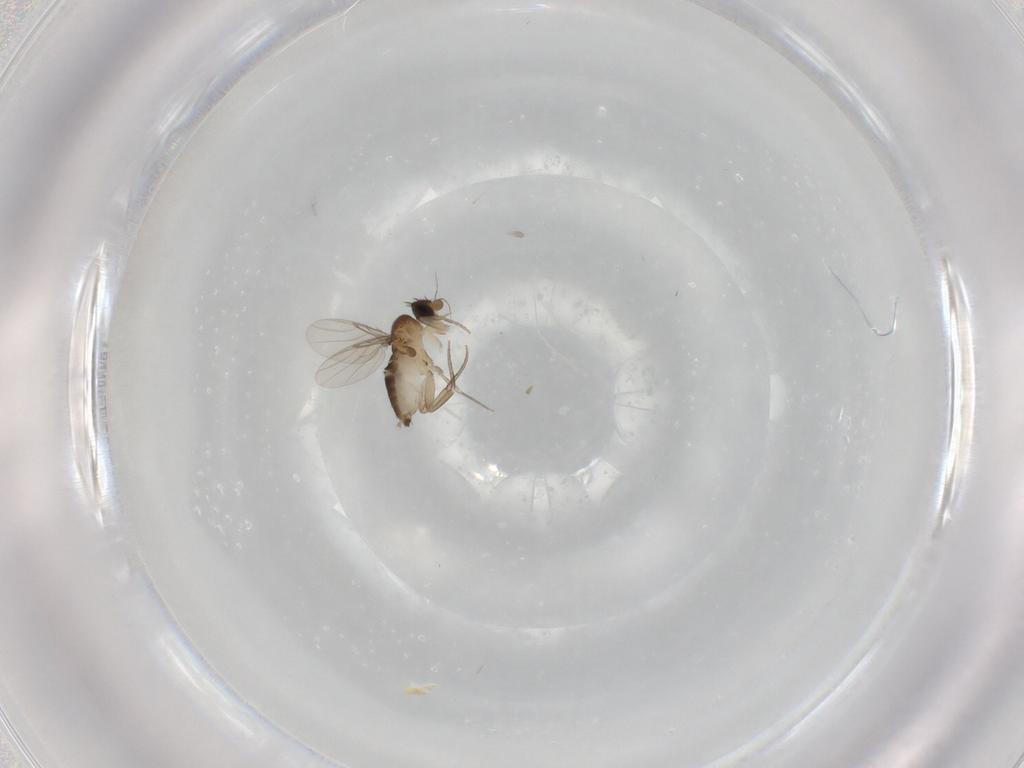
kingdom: Animalia
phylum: Arthropoda
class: Insecta
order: Diptera
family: Phoridae
